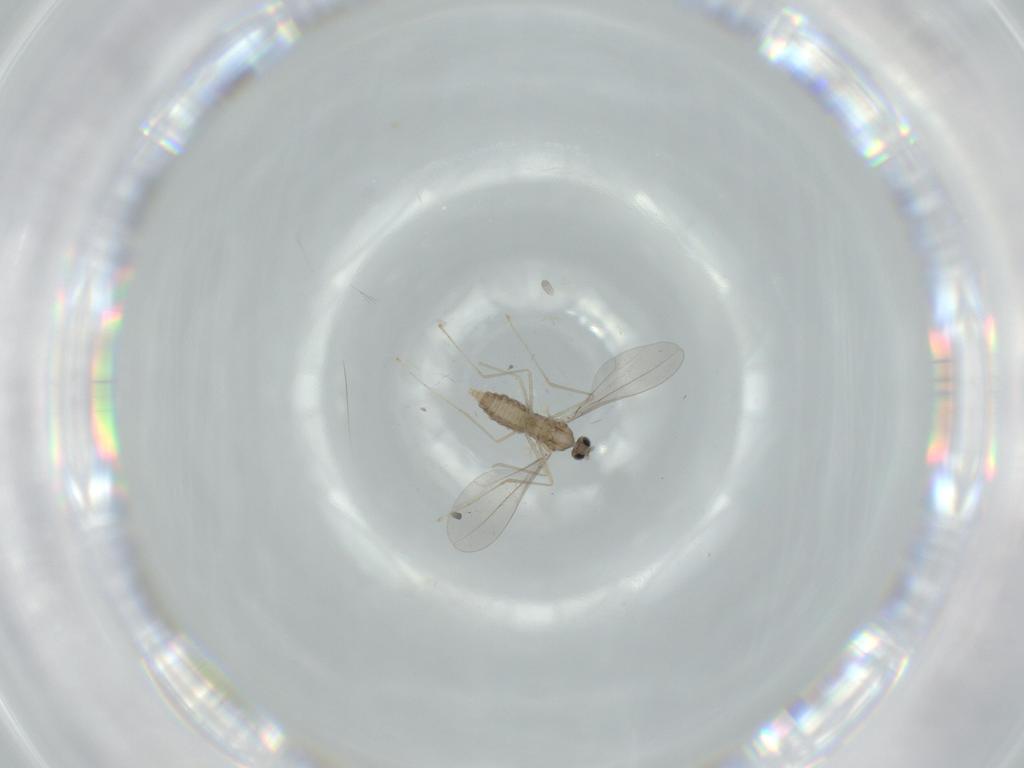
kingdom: Animalia
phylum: Arthropoda
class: Insecta
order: Diptera
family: Cecidomyiidae
